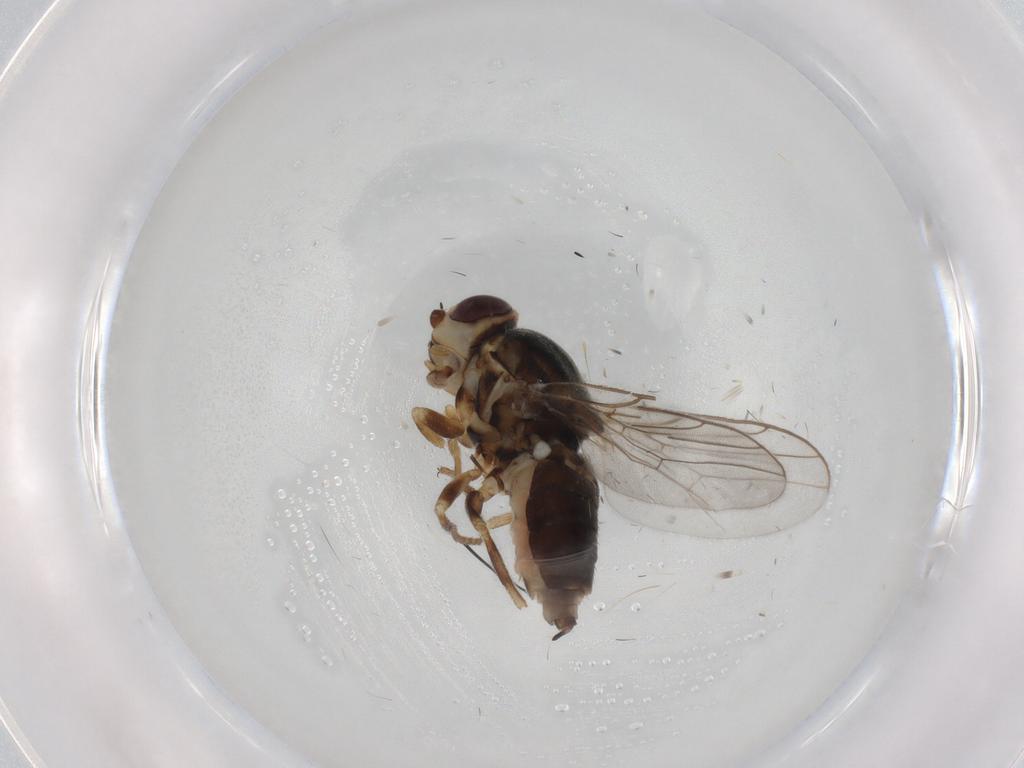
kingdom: Animalia
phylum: Arthropoda
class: Insecta
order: Diptera
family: Chloropidae
